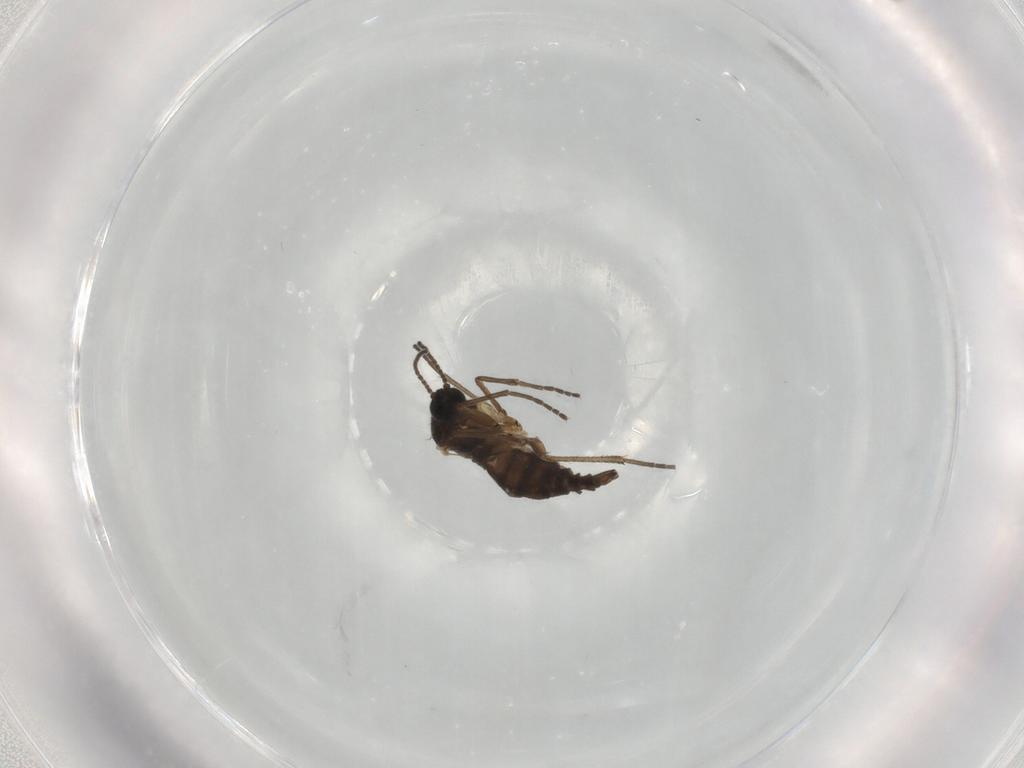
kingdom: Animalia
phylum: Arthropoda
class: Insecta
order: Diptera
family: Sciaridae
